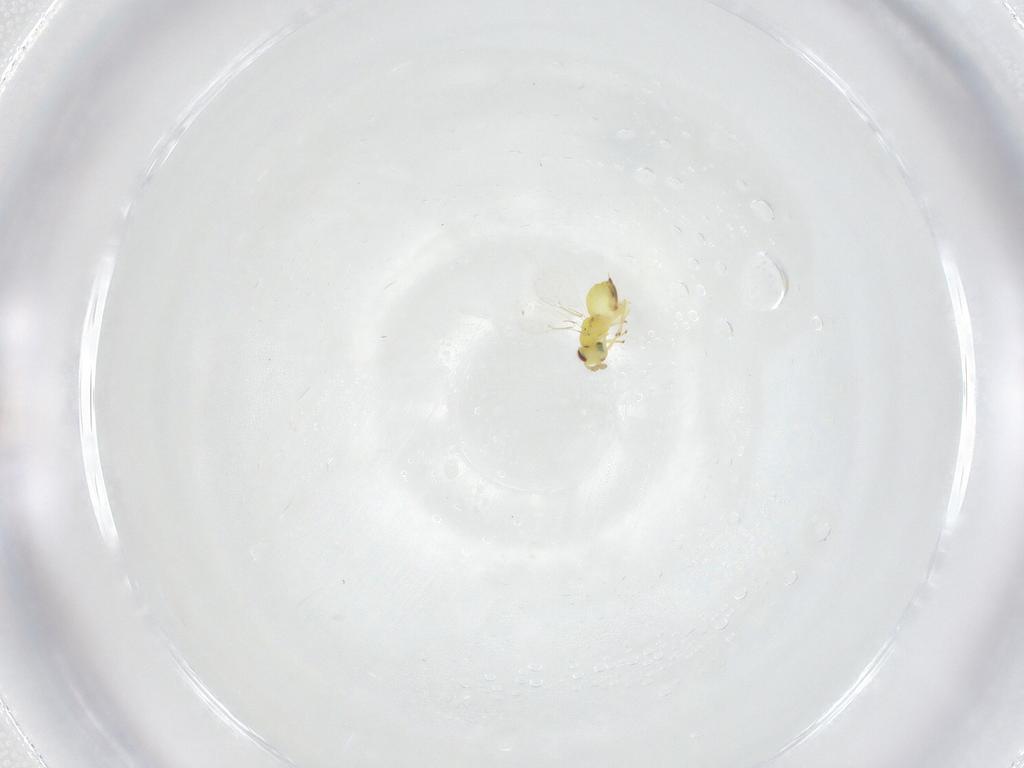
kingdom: Animalia
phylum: Arthropoda
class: Insecta
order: Hymenoptera
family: Eulophidae
